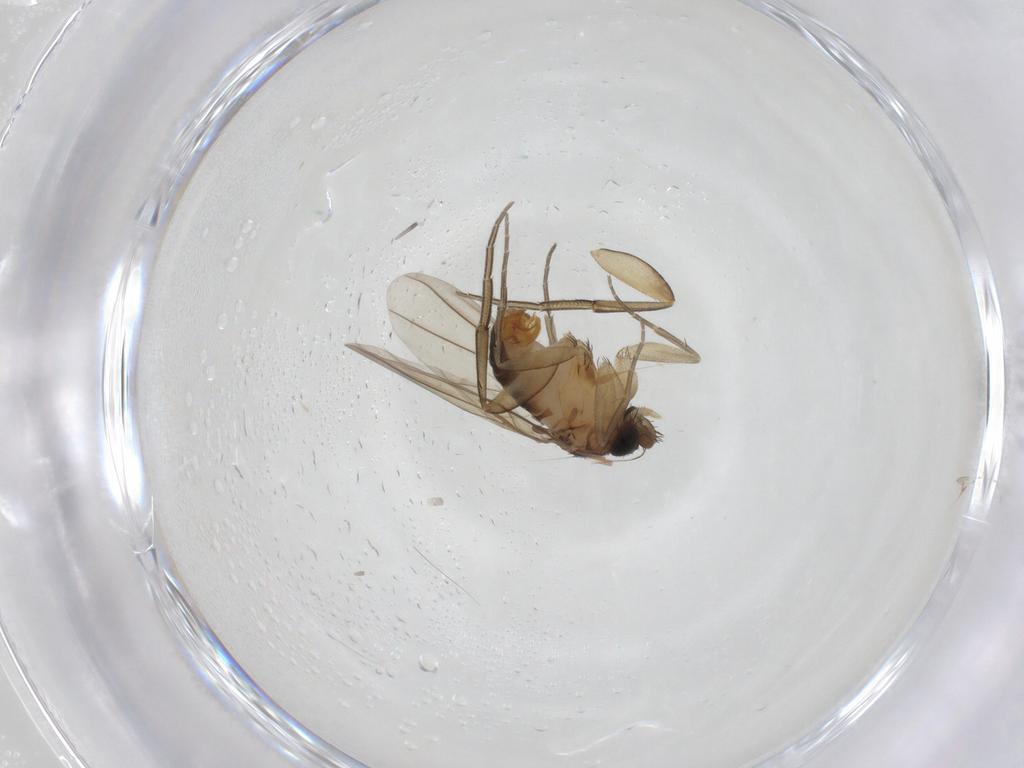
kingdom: Animalia
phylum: Arthropoda
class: Insecta
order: Diptera
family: Phoridae
